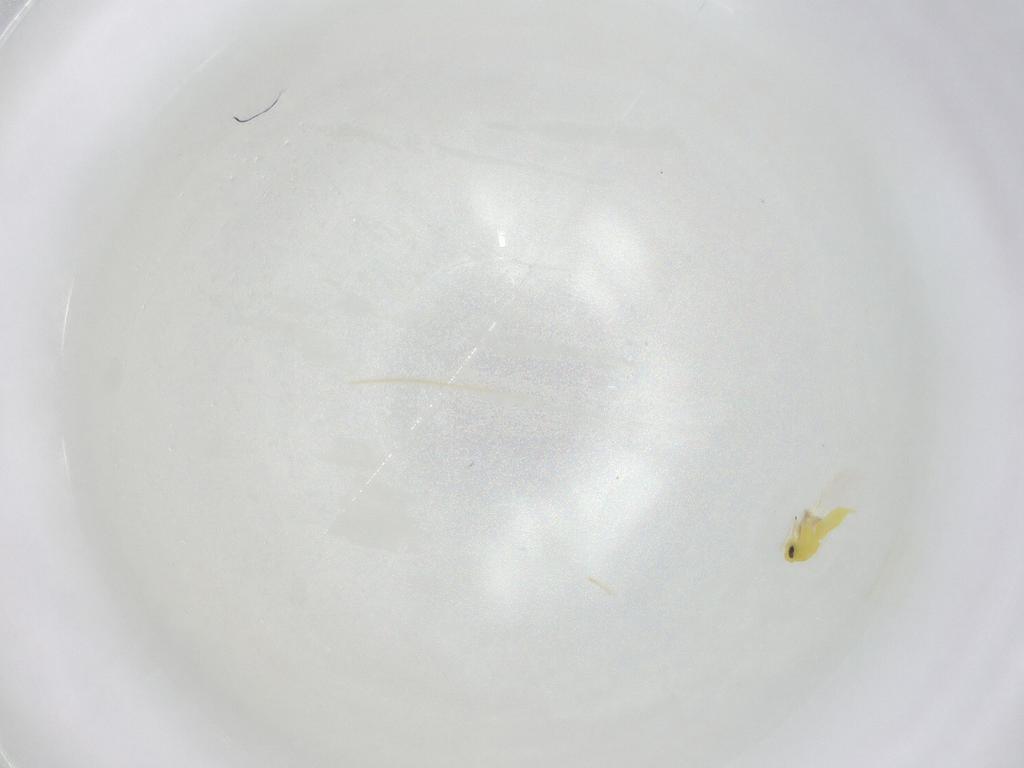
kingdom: Animalia
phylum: Arthropoda
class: Insecta
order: Hemiptera
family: Aleyrodidae
